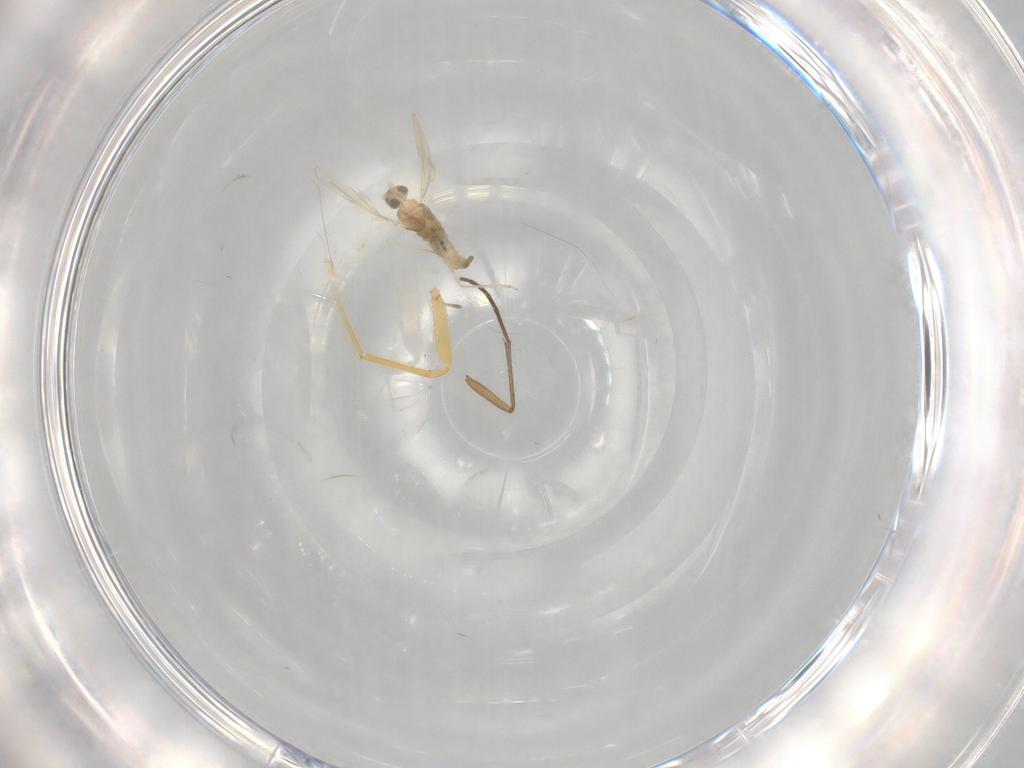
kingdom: Animalia
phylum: Arthropoda
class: Insecta
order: Diptera
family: Cecidomyiidae
